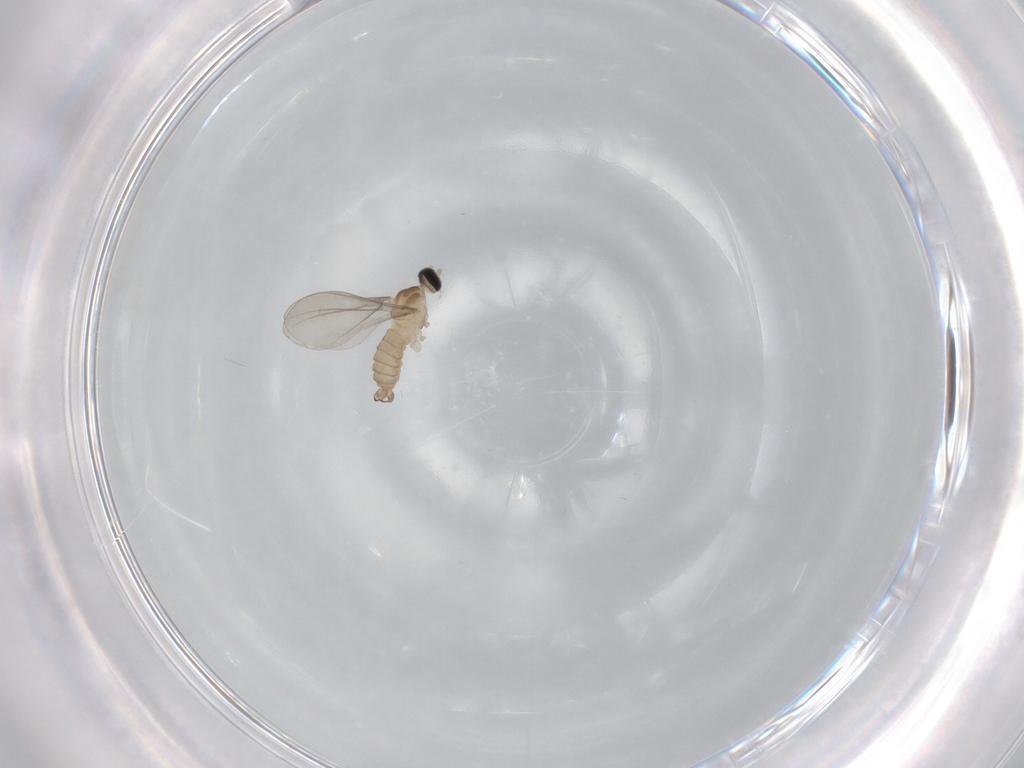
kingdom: Animalia
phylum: Arthropoda
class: Insecta
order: Diptera
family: Cecidomyiidae
